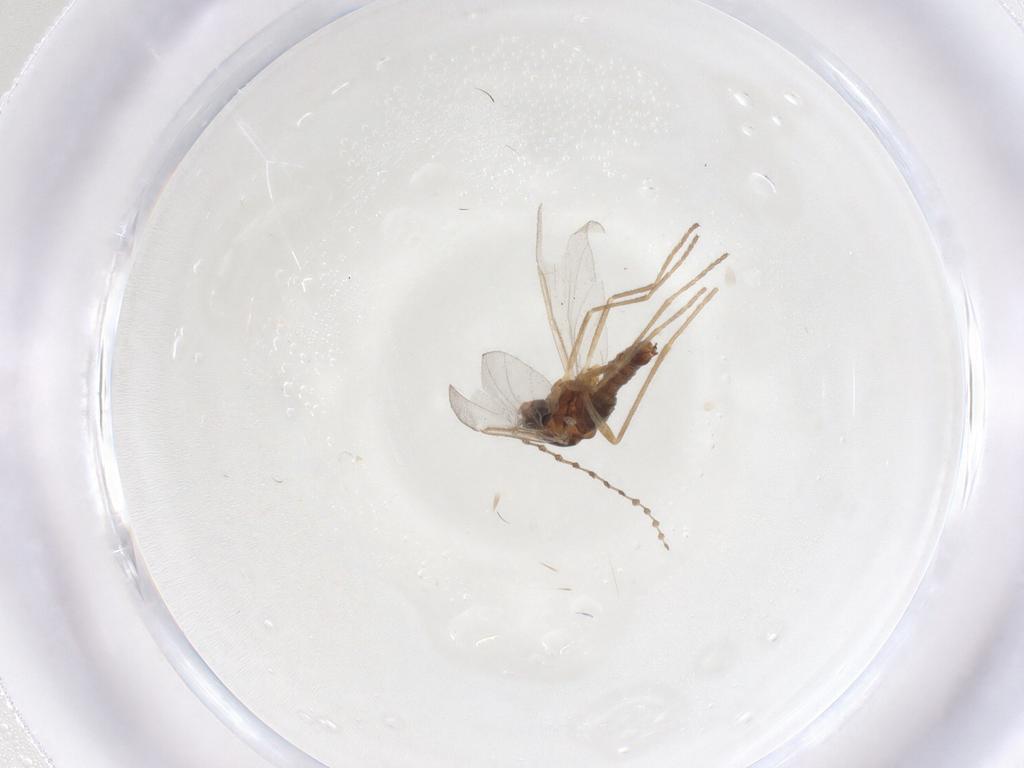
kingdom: Animalia
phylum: Arthropoda
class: Insecta
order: Diptera
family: Cecidomyiidae
